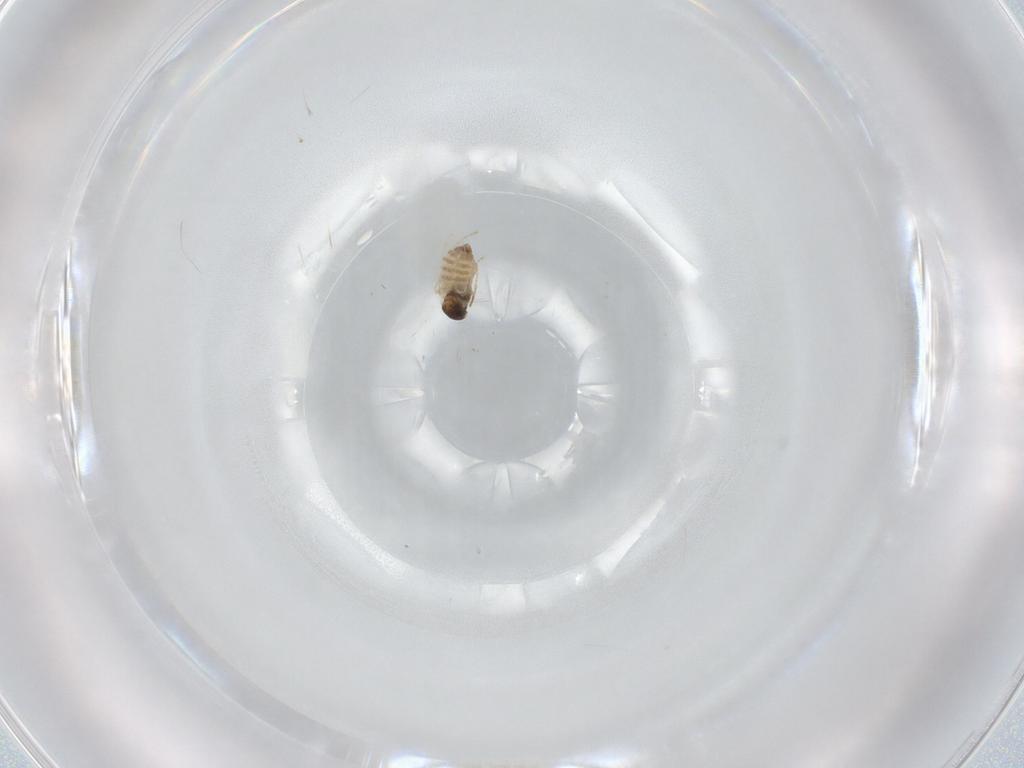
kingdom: Animalia
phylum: Arthropoda
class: Insecta
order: Diptera
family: Cecidomyiidae
